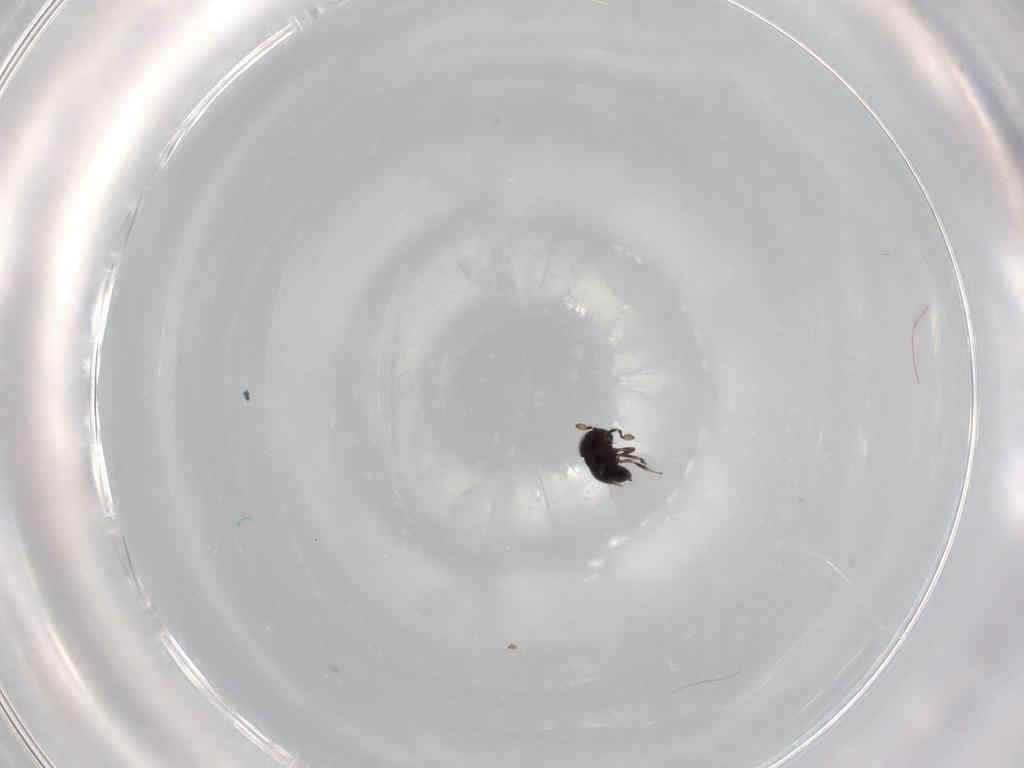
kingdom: Animalia
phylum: Arthropoda
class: Insecta
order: Hymenoptera
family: Scelionidae
